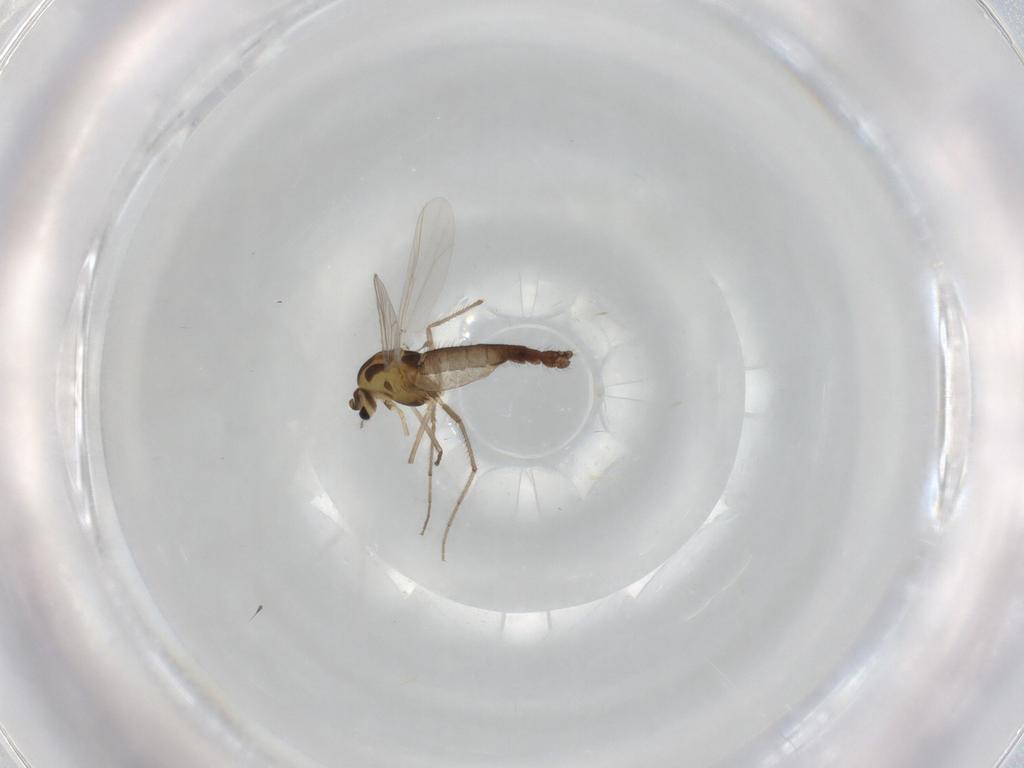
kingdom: Animalia
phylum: Arthropoda
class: Insecta
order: Diptera
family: Chironomidae
